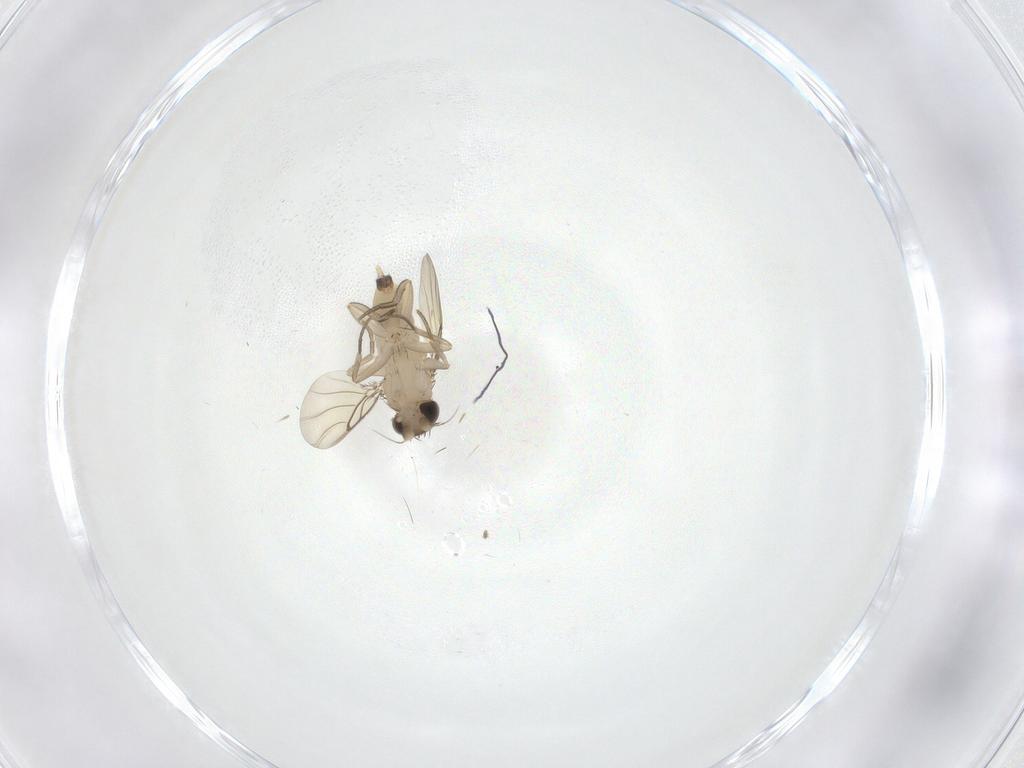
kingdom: Animalia
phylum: Arthropoda
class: Insecta
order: Diptera
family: Phoridae
